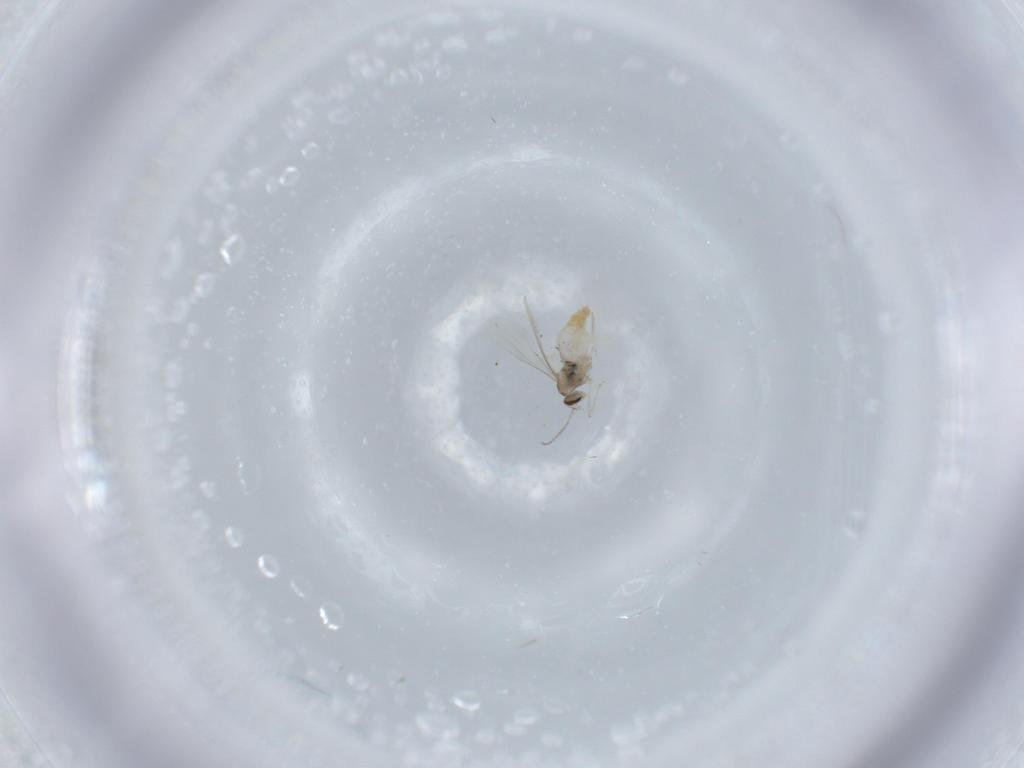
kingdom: Animalia
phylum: Arthropoda
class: Insecta
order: Diptera
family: Cecidomyiidae
